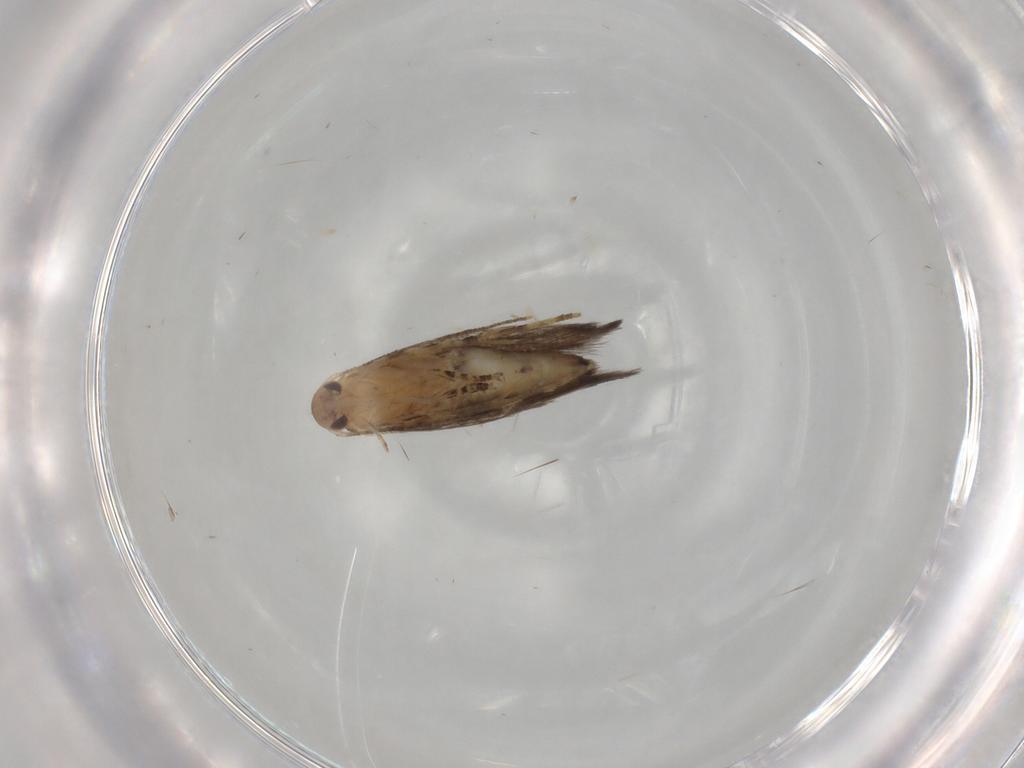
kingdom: Animalia
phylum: Arthropoda
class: Insecta
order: Lepidoptera
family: Elachistidae
